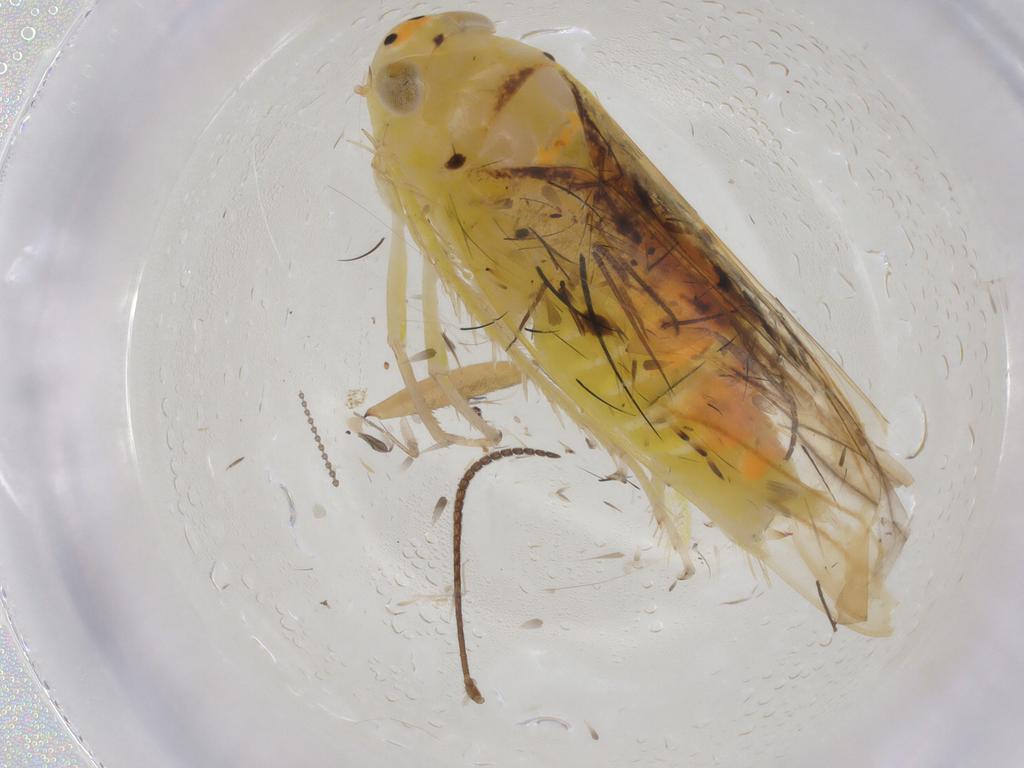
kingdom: Animalia
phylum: Arthropoda
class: Insecta
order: Hemiptera
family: Cicadellidae
